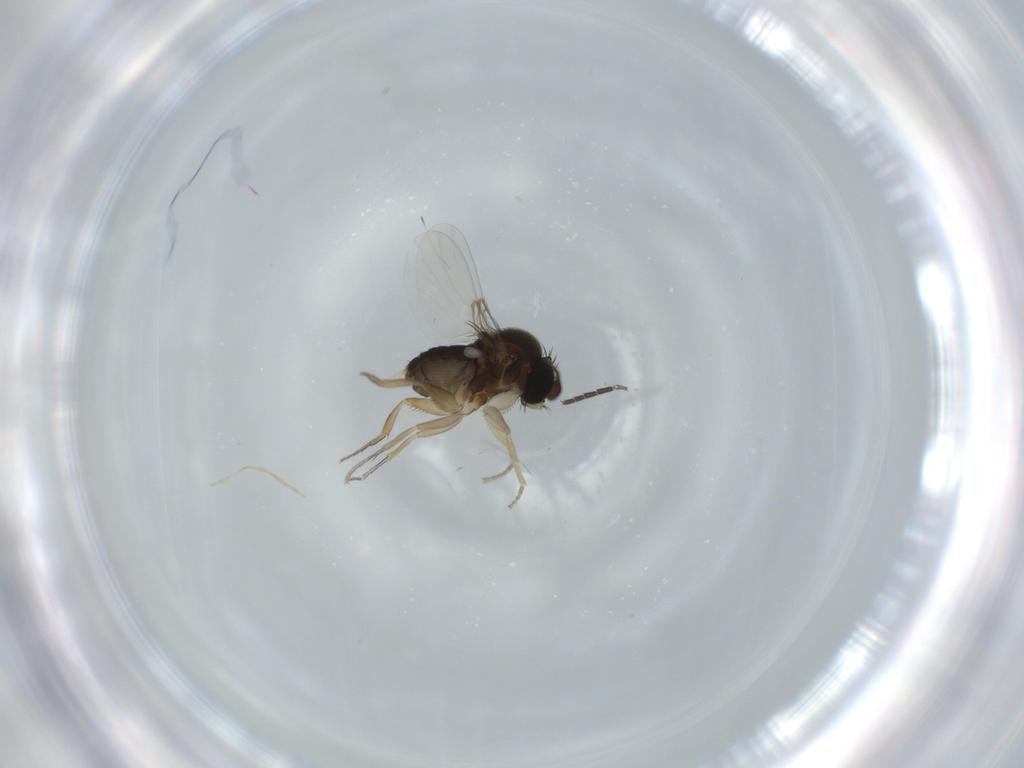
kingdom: Animalia
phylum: Arthropoda
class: Insecta
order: Diptera
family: Phoridae
